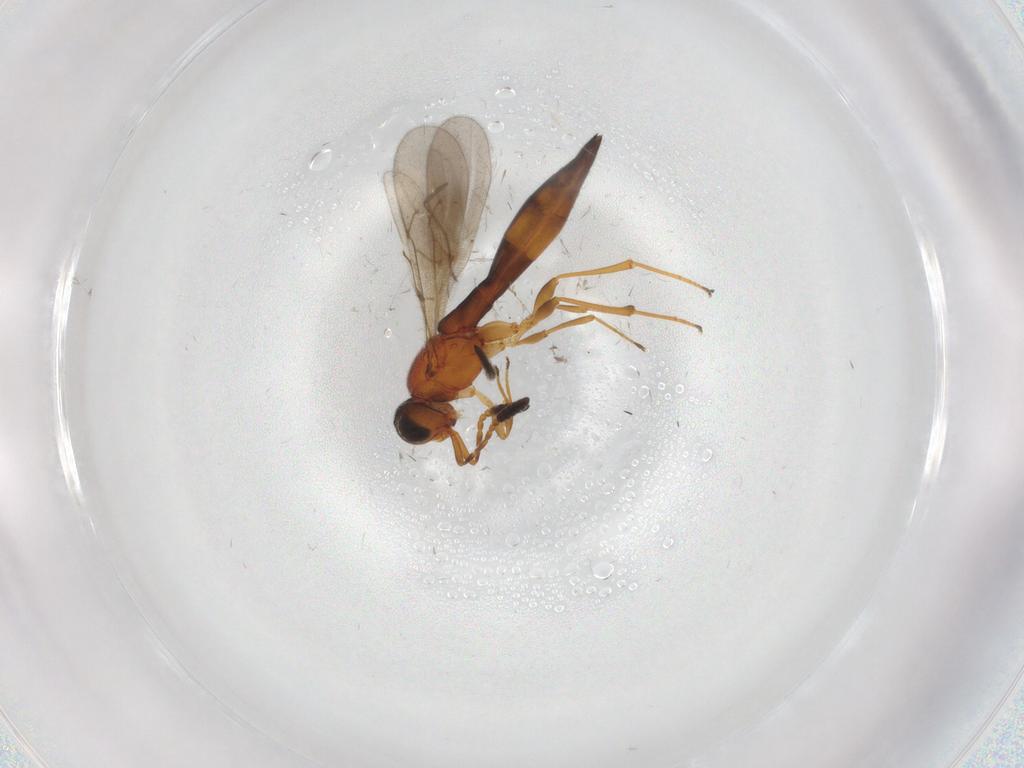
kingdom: Animalia
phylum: Arthropoda
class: Insecta
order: Hymenoptera
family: Scelionidae
